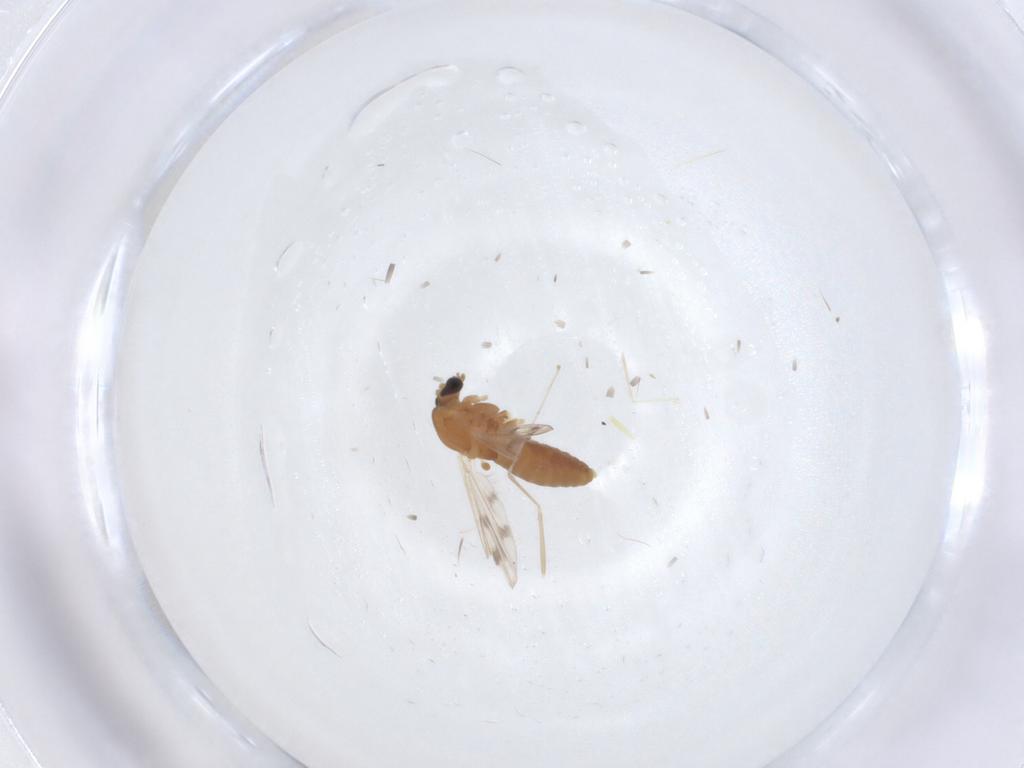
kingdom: Animalia
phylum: Arthropoda
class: Insecta
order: Diptera
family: Chironomidae
